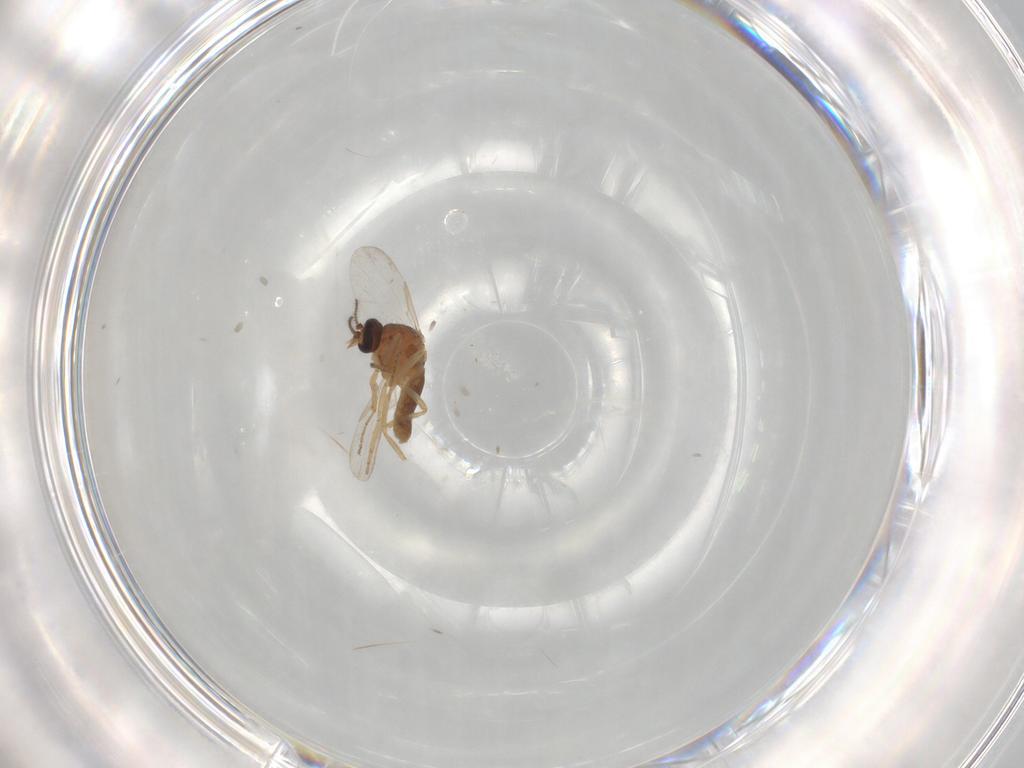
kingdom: Animalia
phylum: Arthropoda
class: Insecta
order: Diptera
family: Ceratopogonidae
